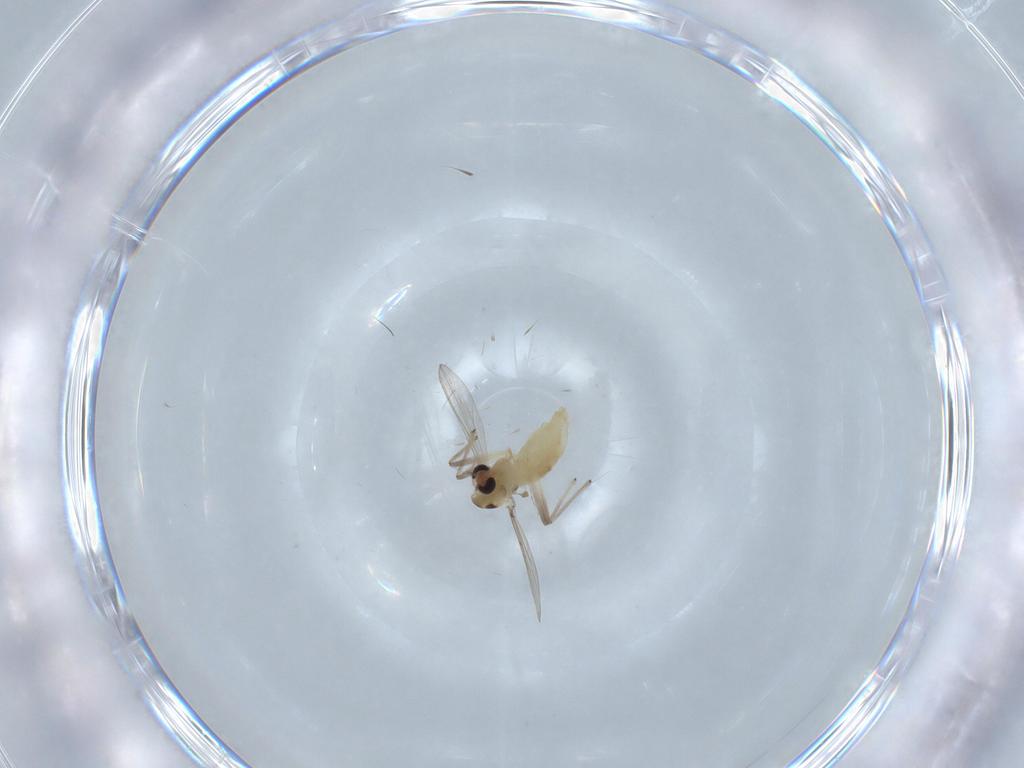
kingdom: Animalia
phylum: Arthropoda
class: Insecta
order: Diptera
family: Chironomidae
